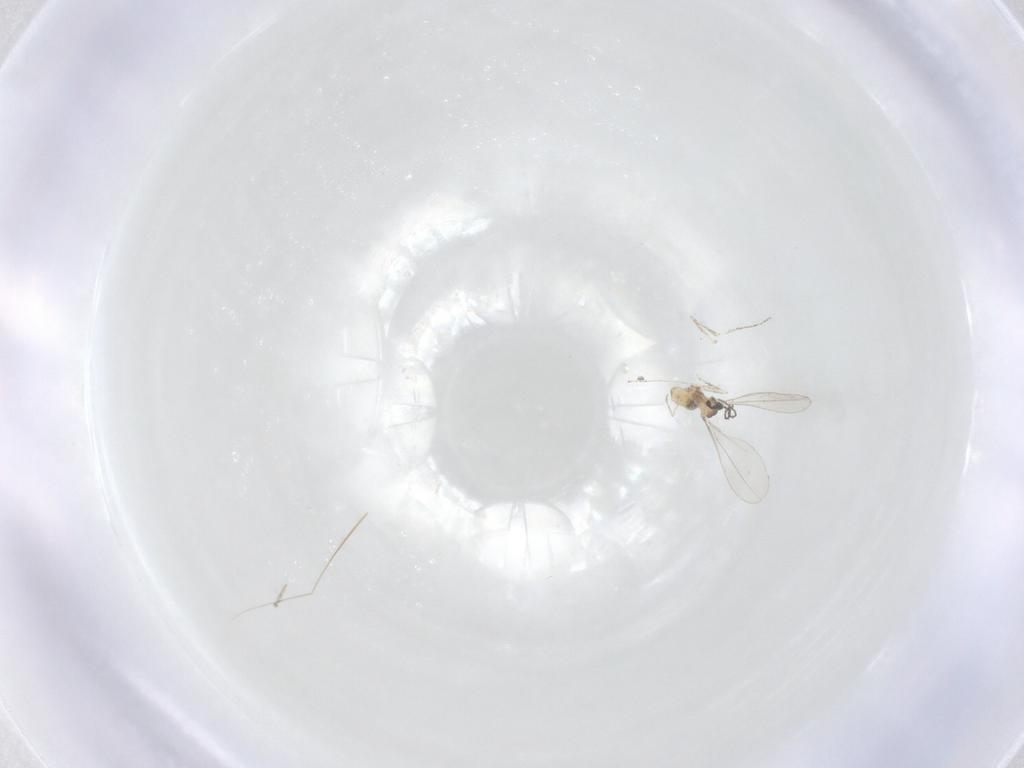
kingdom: Animalia
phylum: Arthropoda
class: Insecta
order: Diptera
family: Cecidomyiidae
